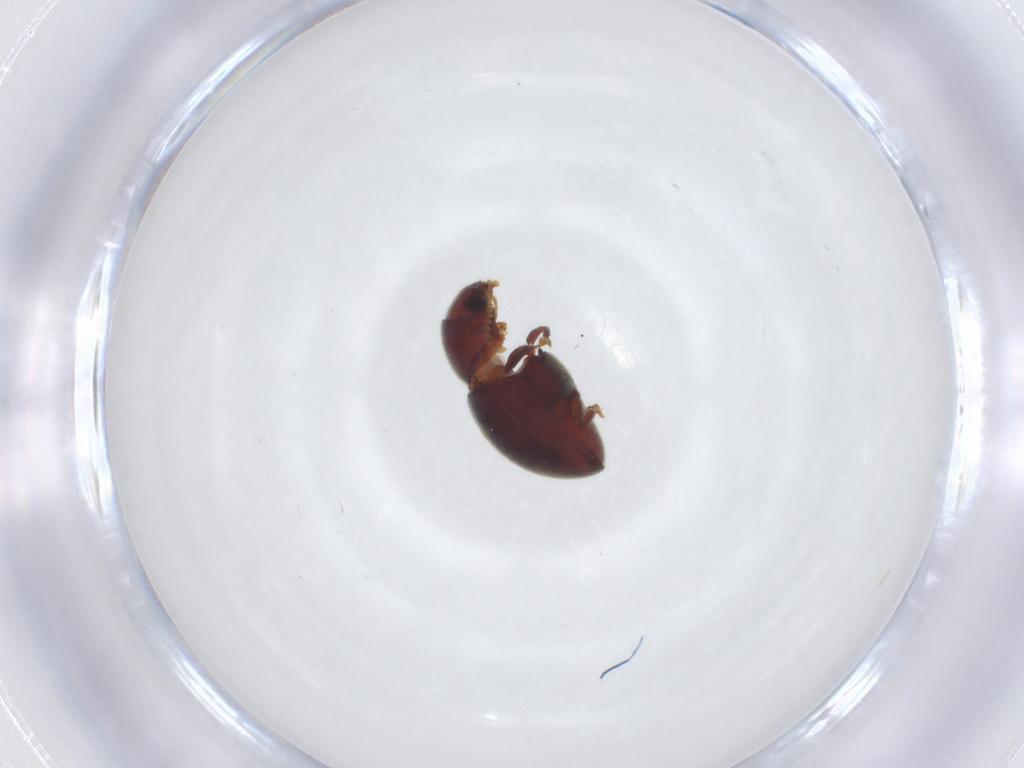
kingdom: Animalia
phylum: Arthropoda
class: Insecta
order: Coleoptera
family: Ptinidae
